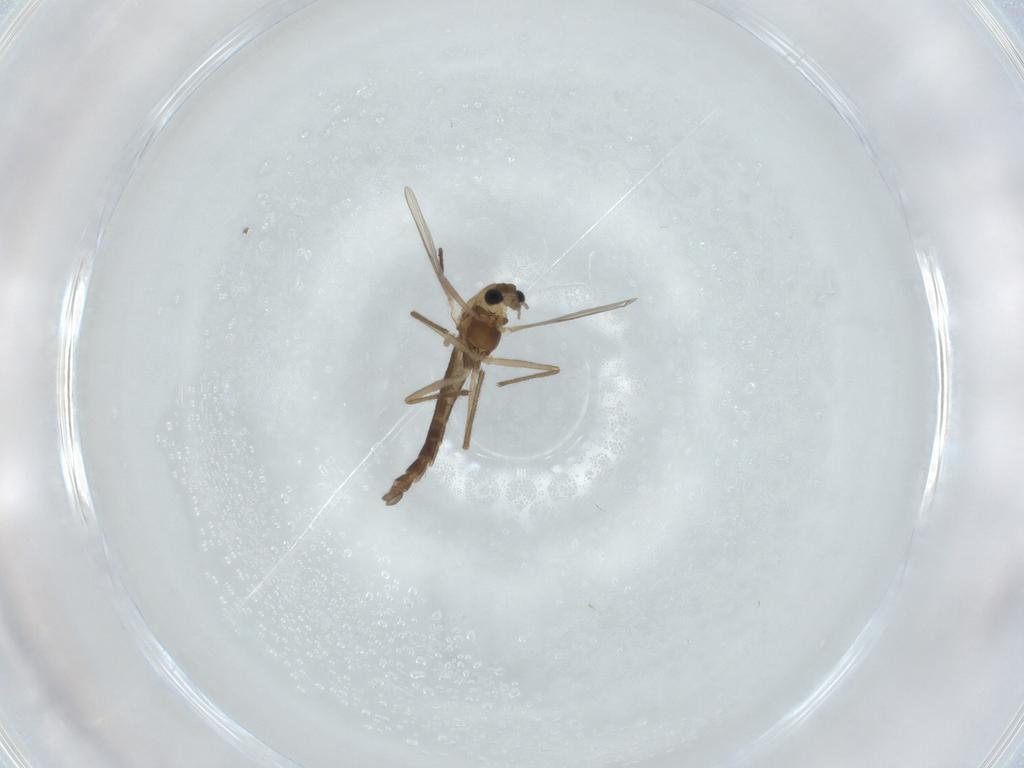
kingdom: Animalia
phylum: Arthropoda
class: Insecta
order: Diptera
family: Chironomidae
